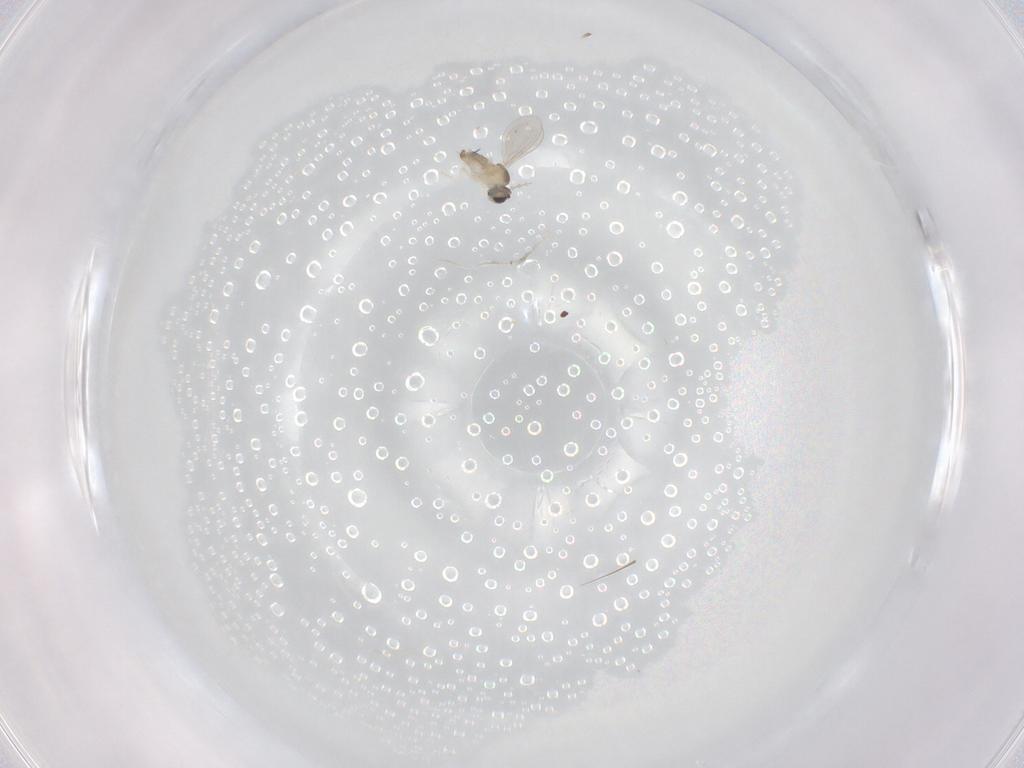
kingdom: Animalia
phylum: Arthropoda
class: Insecta
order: Diptera
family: Cecidomyiidae
